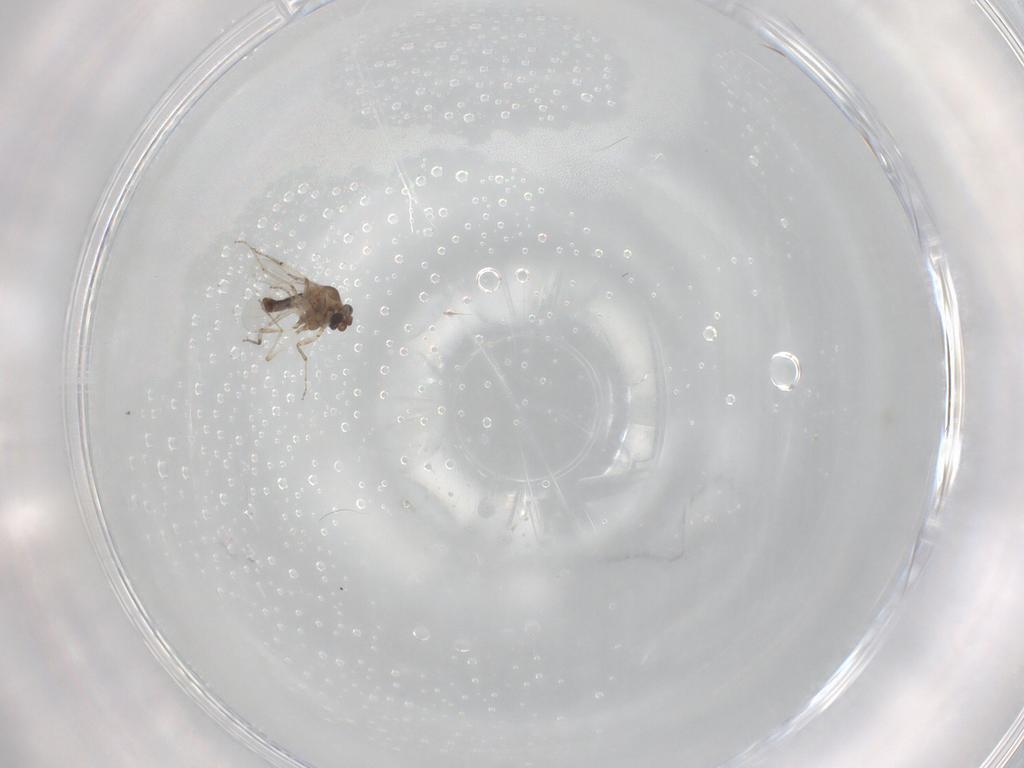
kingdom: Animalia
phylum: Arthropoda
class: Insecta
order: Diptera
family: Ceratopogonidae
